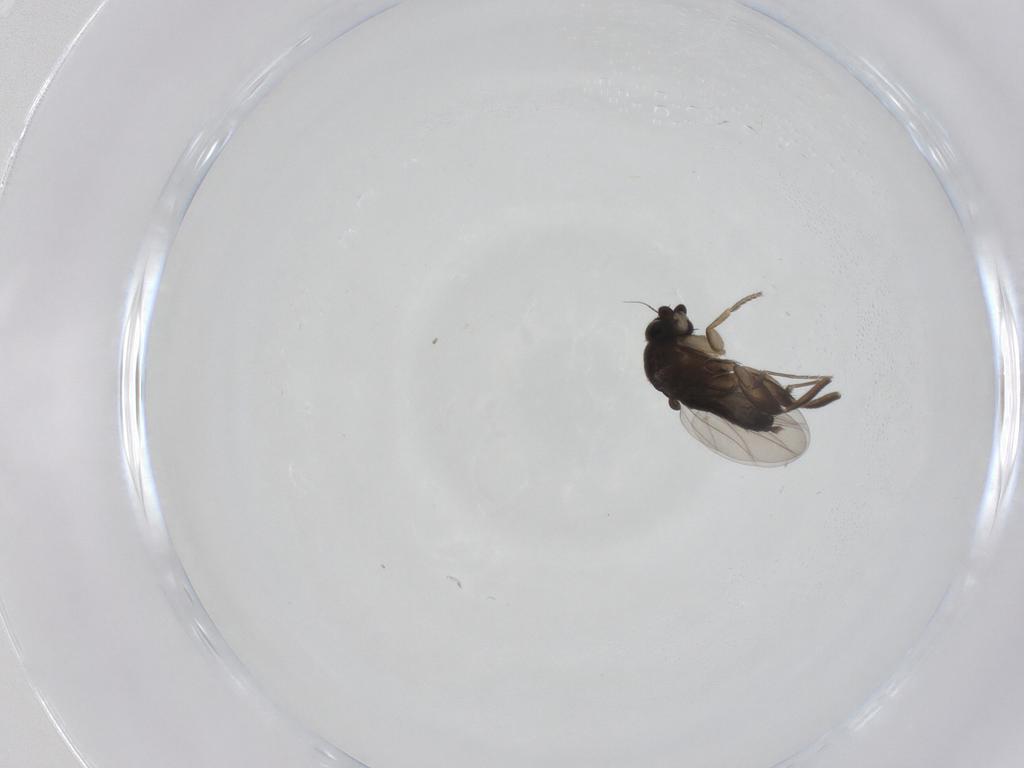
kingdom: Animalia
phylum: Arthropoda
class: Insecta
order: Diptera
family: Phoridae
